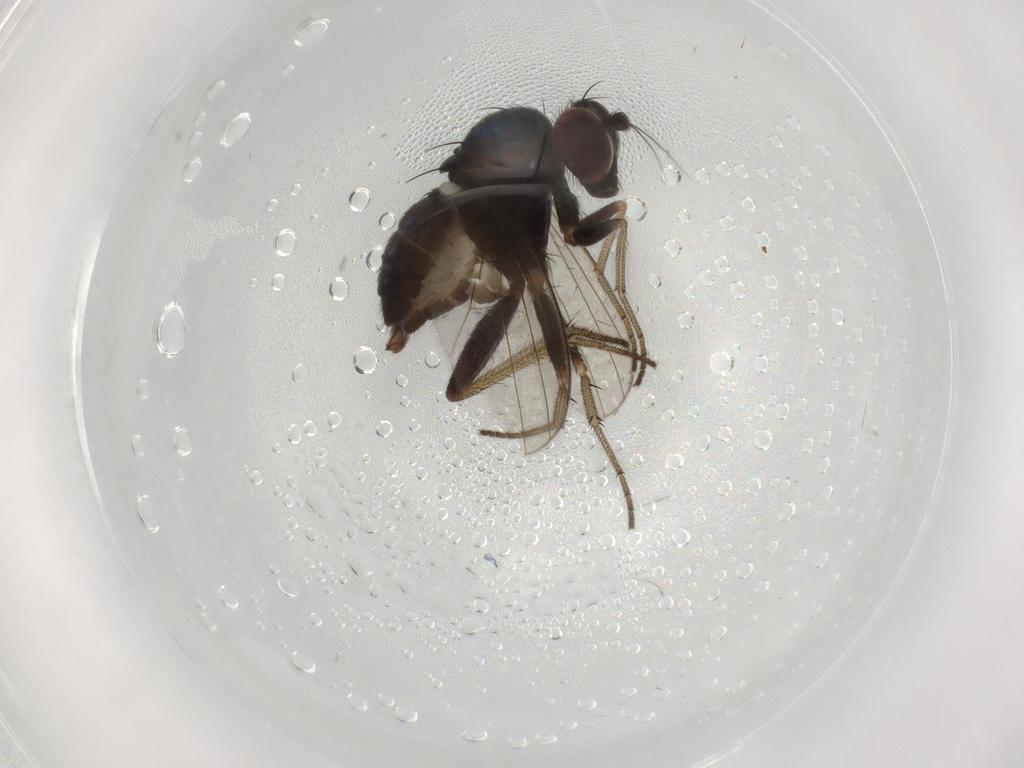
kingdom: Animalia
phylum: Arthropoda
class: Insecta
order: Diptera
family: Dolichopodidae
